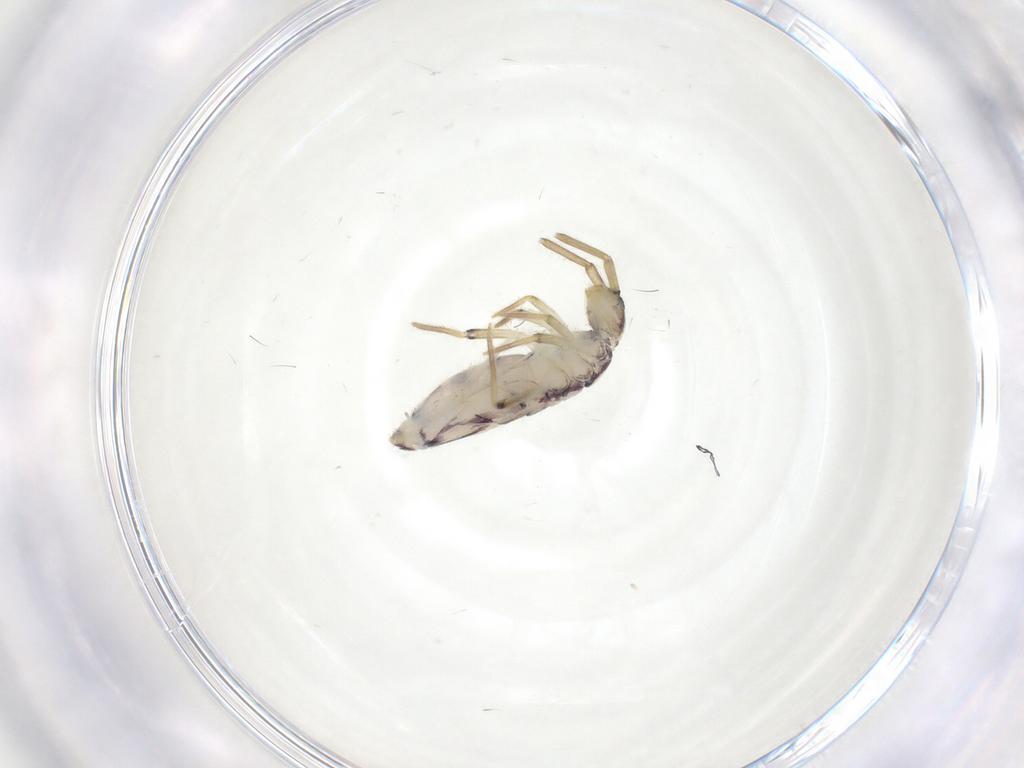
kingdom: Animalia
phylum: Arthropoda
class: Collembola
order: Entomobryomorpha
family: Entomobryidae
